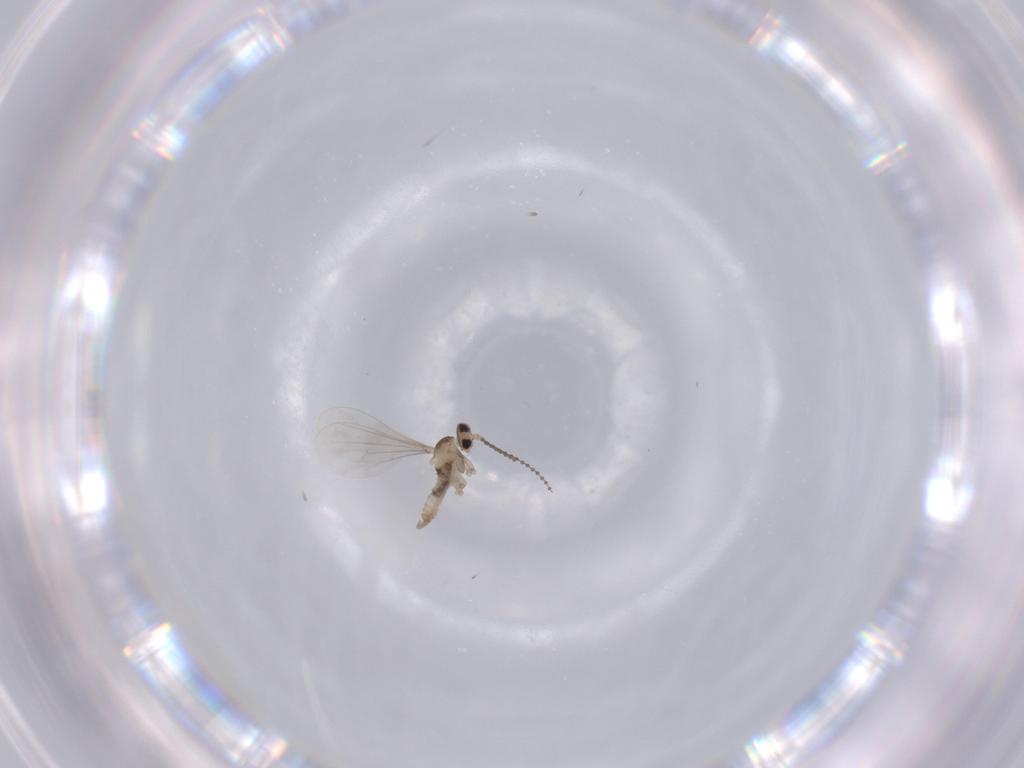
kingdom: Animalia
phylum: Arthropoda
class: Insecta
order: Diptera
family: Cecidomyiidae
